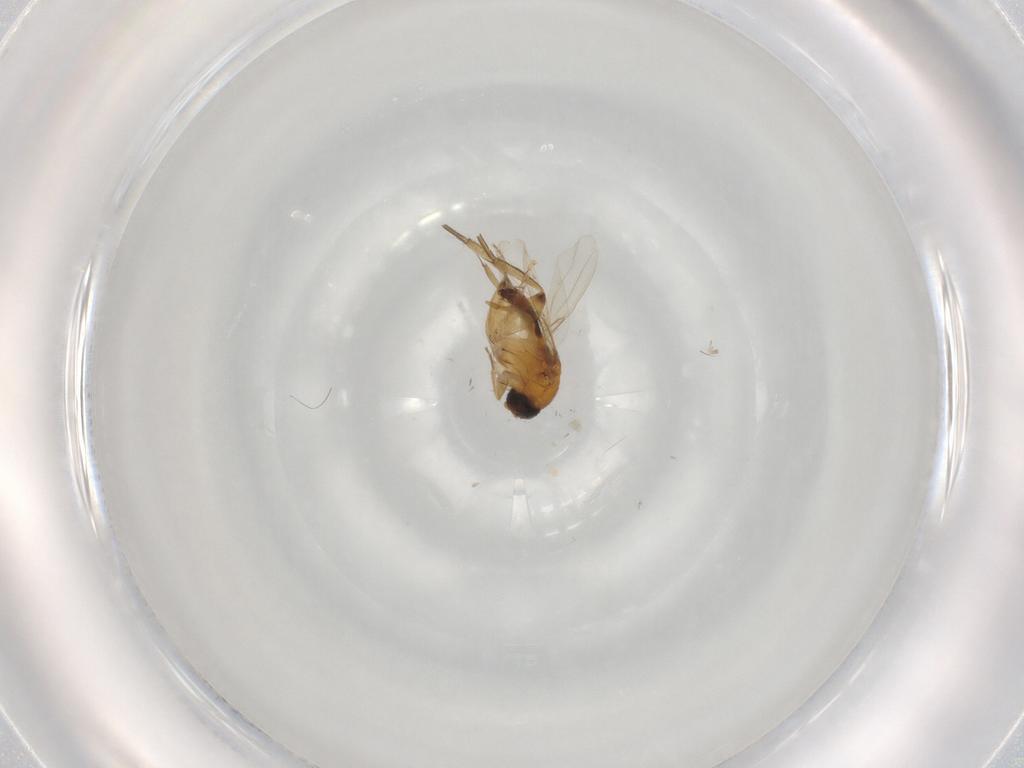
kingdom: Animalia
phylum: Arthropoda
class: Insecta
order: Diptera
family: Phoridae
